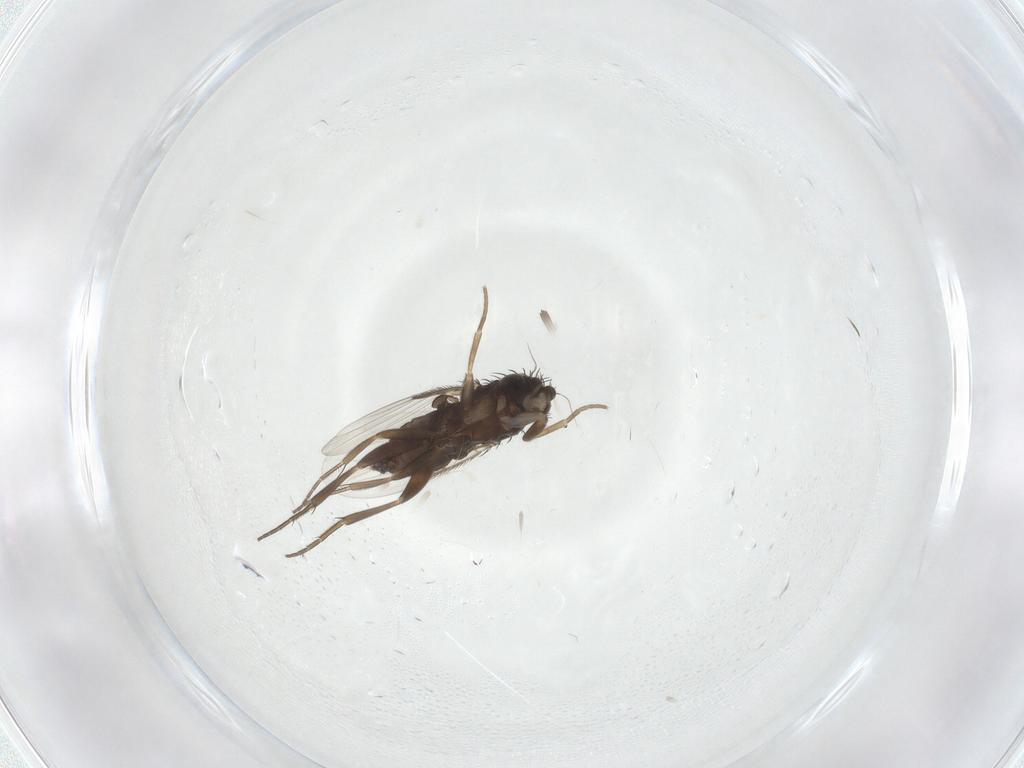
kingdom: Animalia
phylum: Arthropoda
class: Insecta
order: Diptera
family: Phoridae
